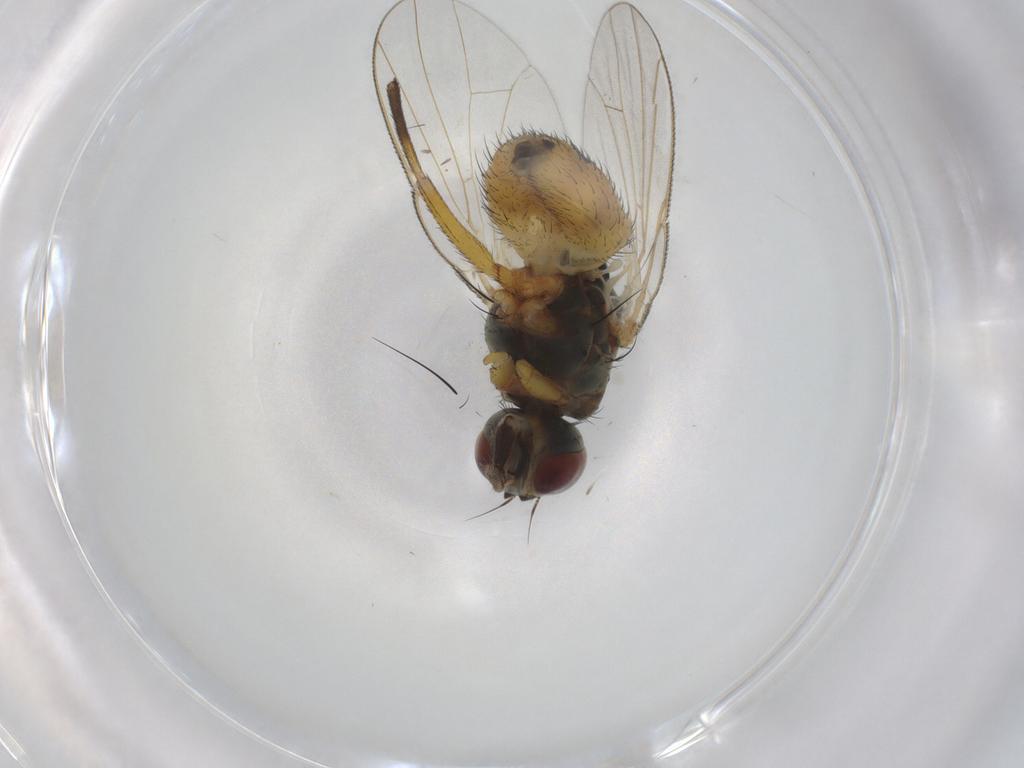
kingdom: Animalia
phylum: Arthropoda
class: Insecta
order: Diptera
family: Muscidae
